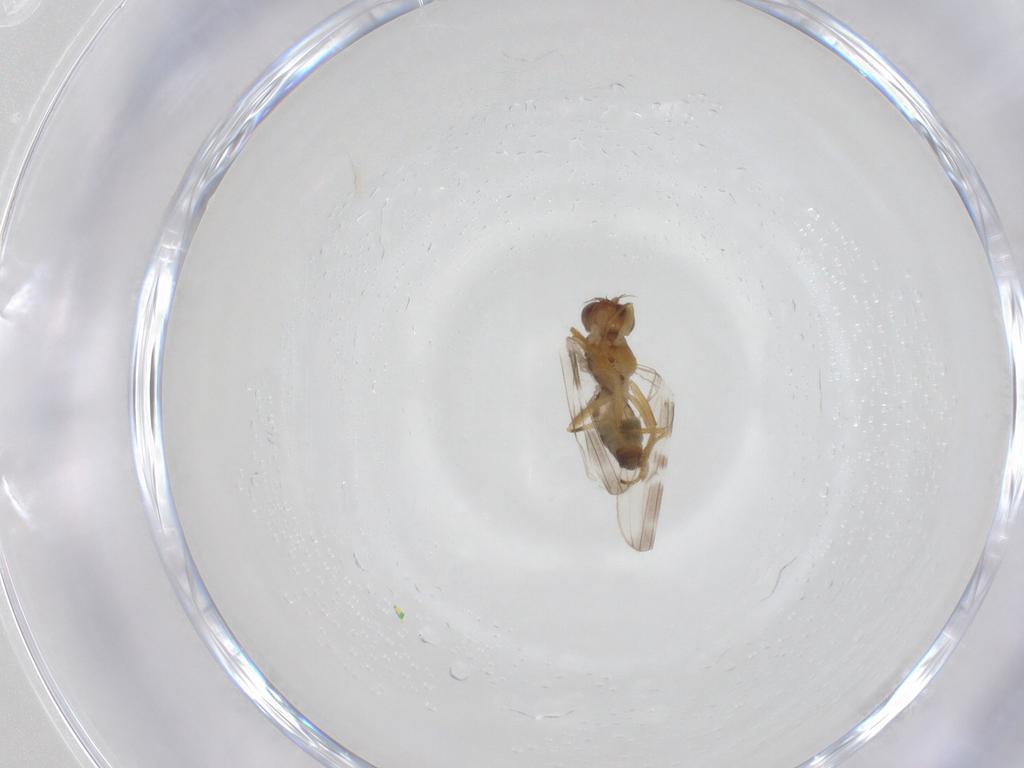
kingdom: Animalia
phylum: Arthropoda
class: Insecta
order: Diptera
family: Periscelididae
